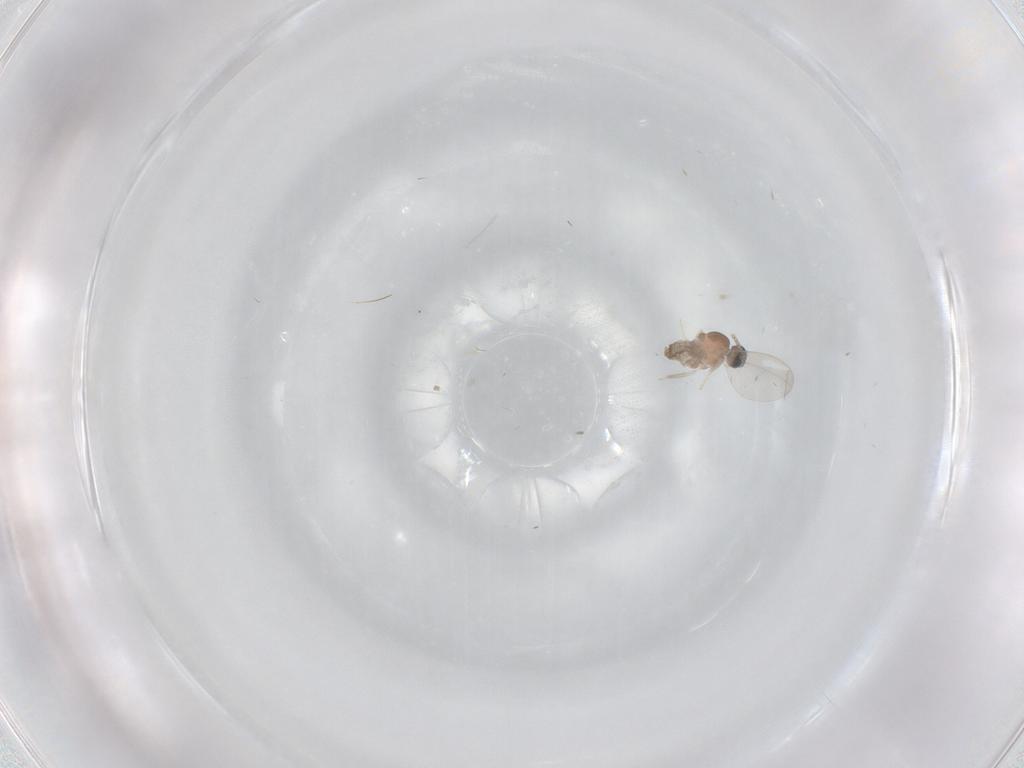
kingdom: Animalia
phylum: Arthropoda
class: Insecta
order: Diptera
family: Cecidomyiidae
